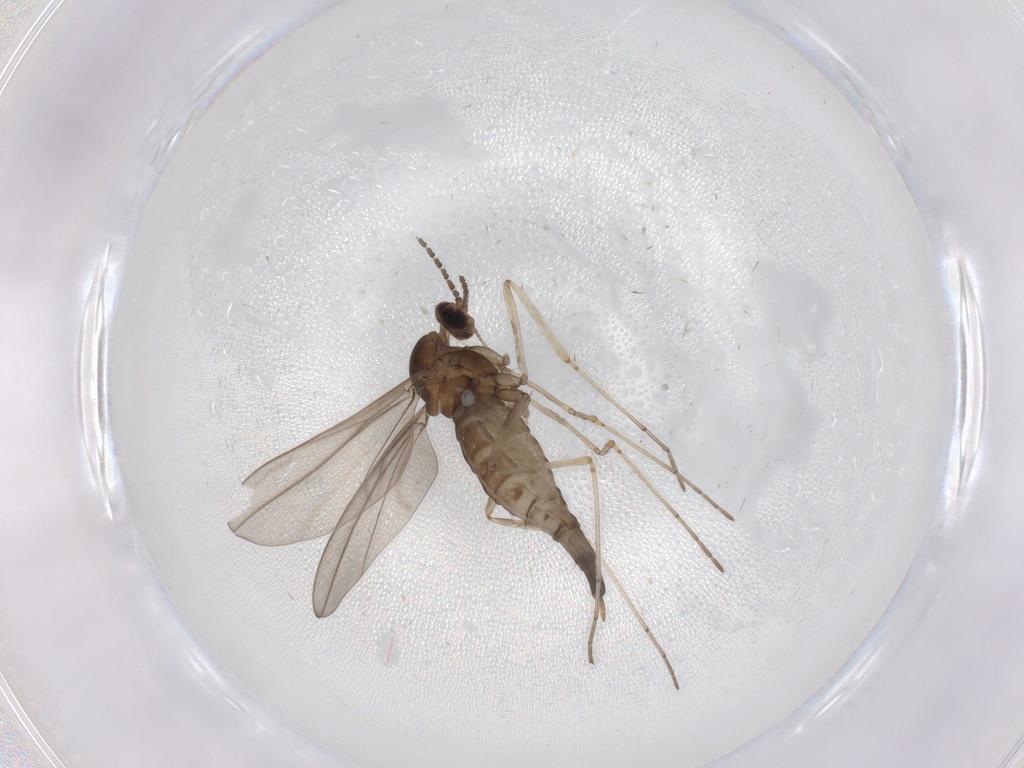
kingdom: Animalia
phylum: Arthropoda
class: Insecta
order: Diptera
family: Cecidomyiidae
